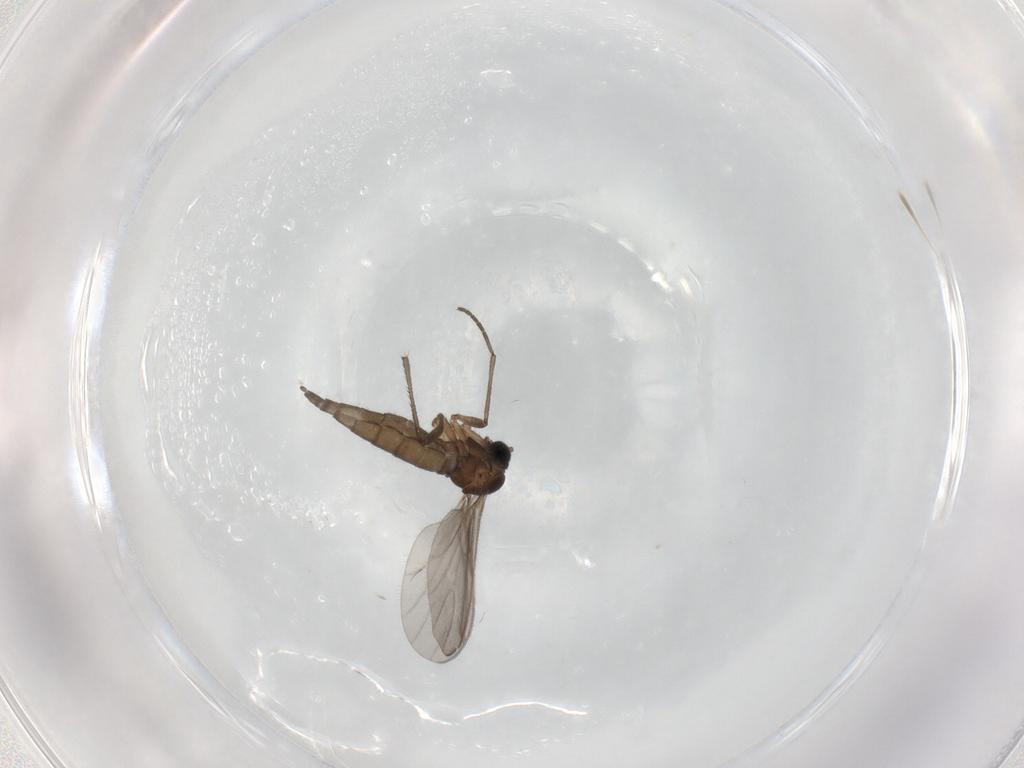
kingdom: Animalia
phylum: Arthropoda
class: Insecta
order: Diptera
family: Sciaridae
